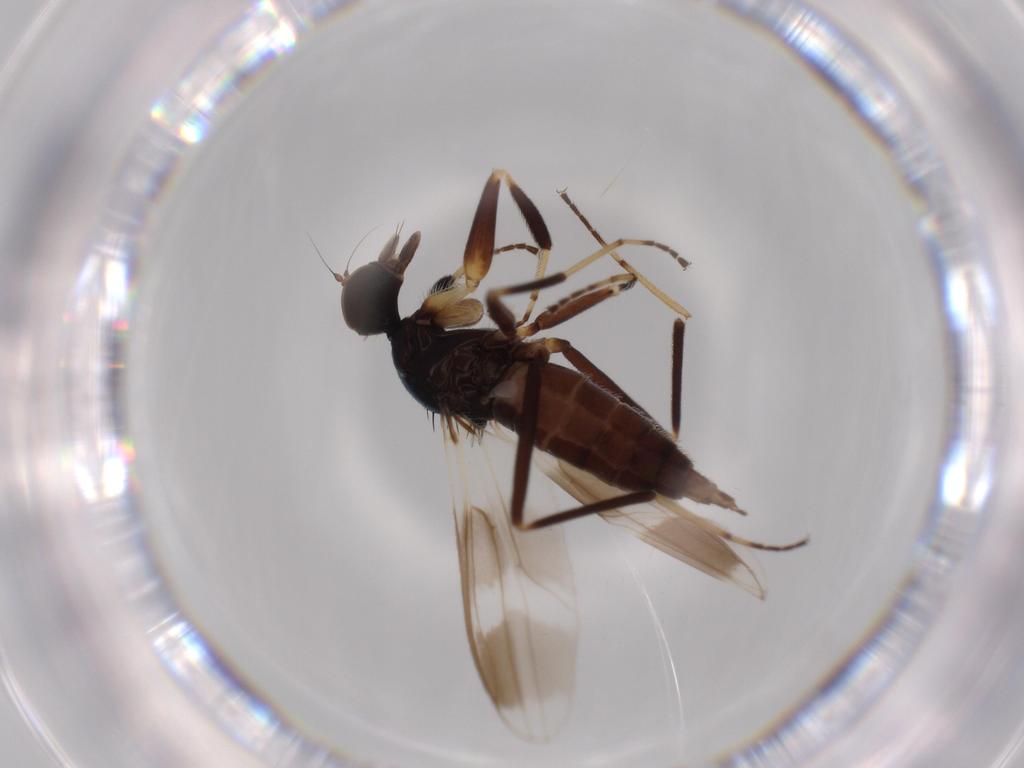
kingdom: Animalia
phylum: Arthropoda
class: Insecta
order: Diptera
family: Hybotidae
